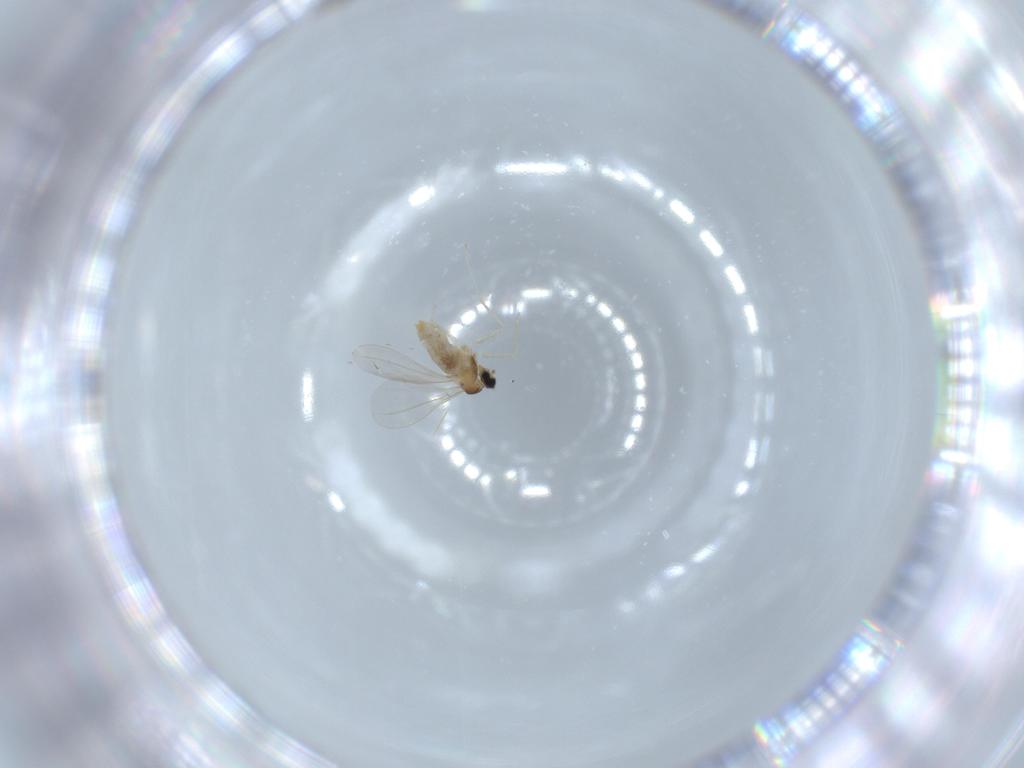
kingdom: Animalia
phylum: Arthropoda
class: Insecta
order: Diptera
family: Cecidomyiidae
